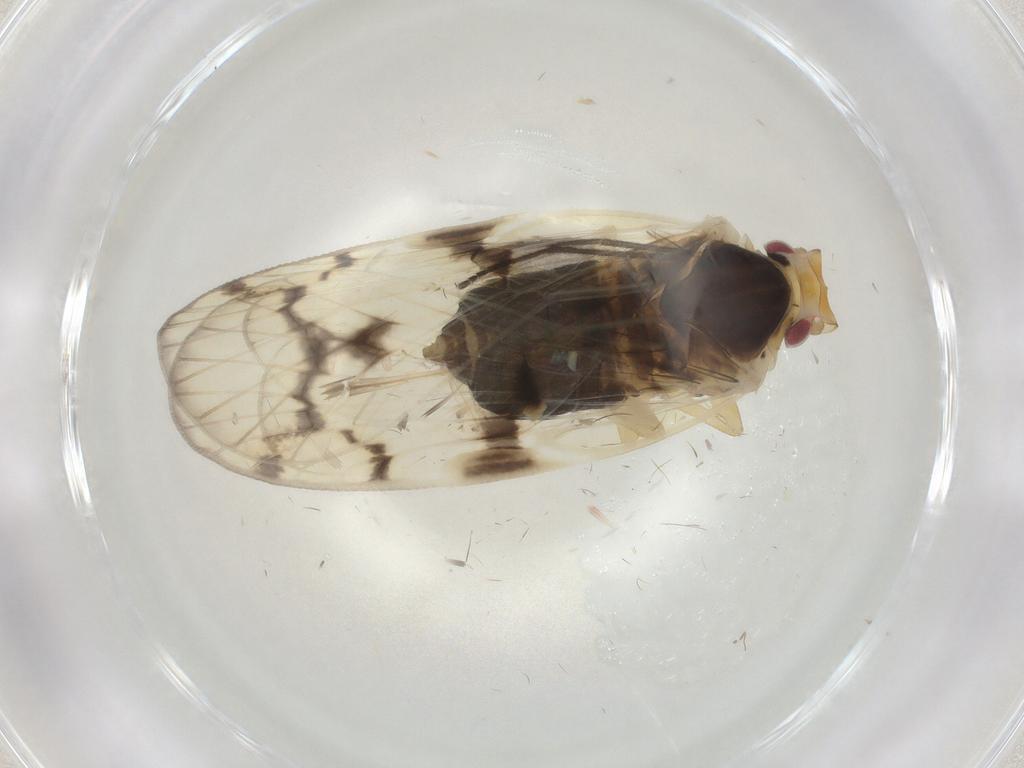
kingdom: Animalia
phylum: Arthropoda
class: Insecta
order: Hemiptera
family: Cixiidae
